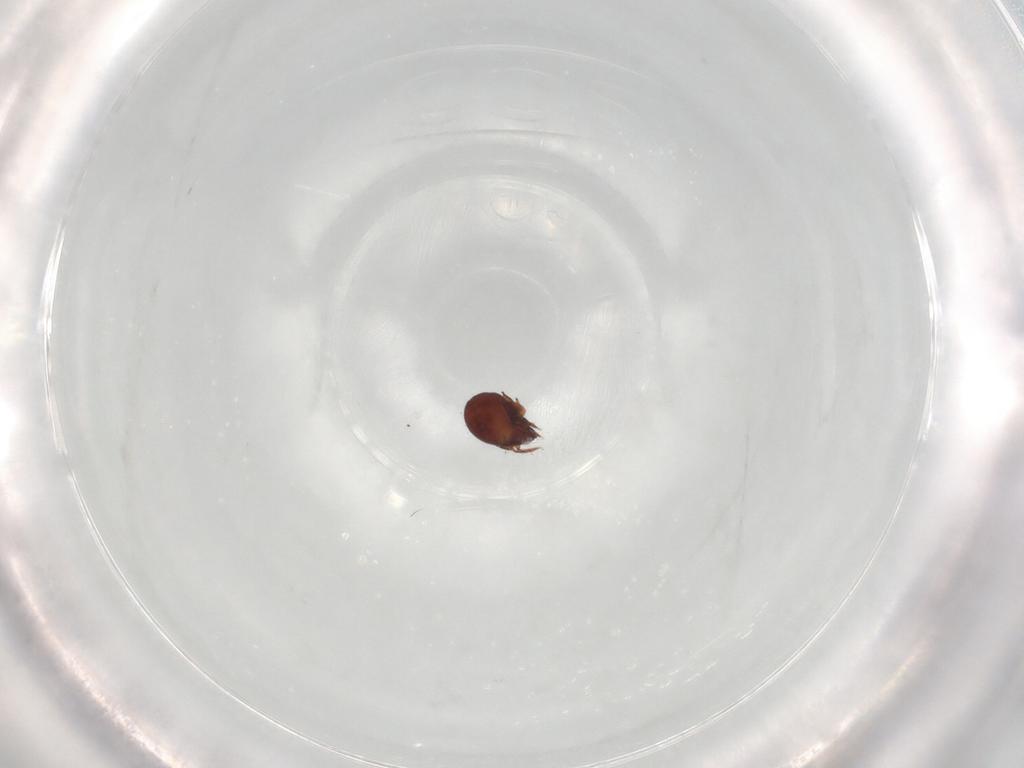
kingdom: Animalia
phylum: Arthropoda
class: Arachnida
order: Sarcoptiformes
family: Humerobatidae
